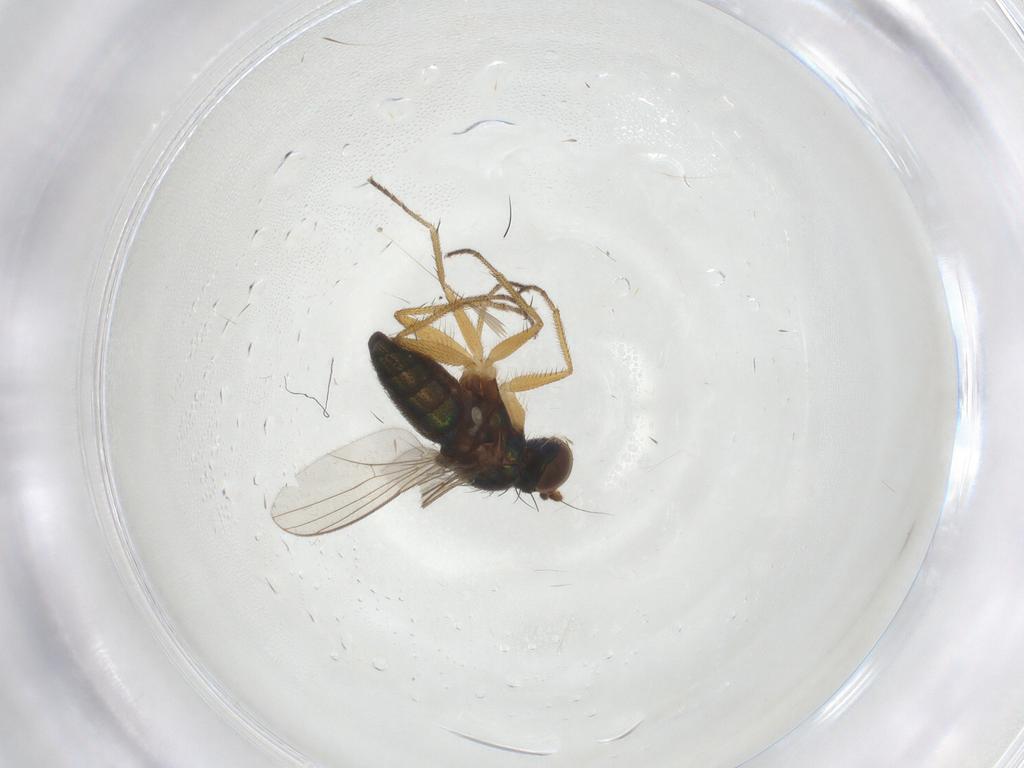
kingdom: Animalia
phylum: Arthropoda
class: Insecta
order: Diptera
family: Dolichopodidae
